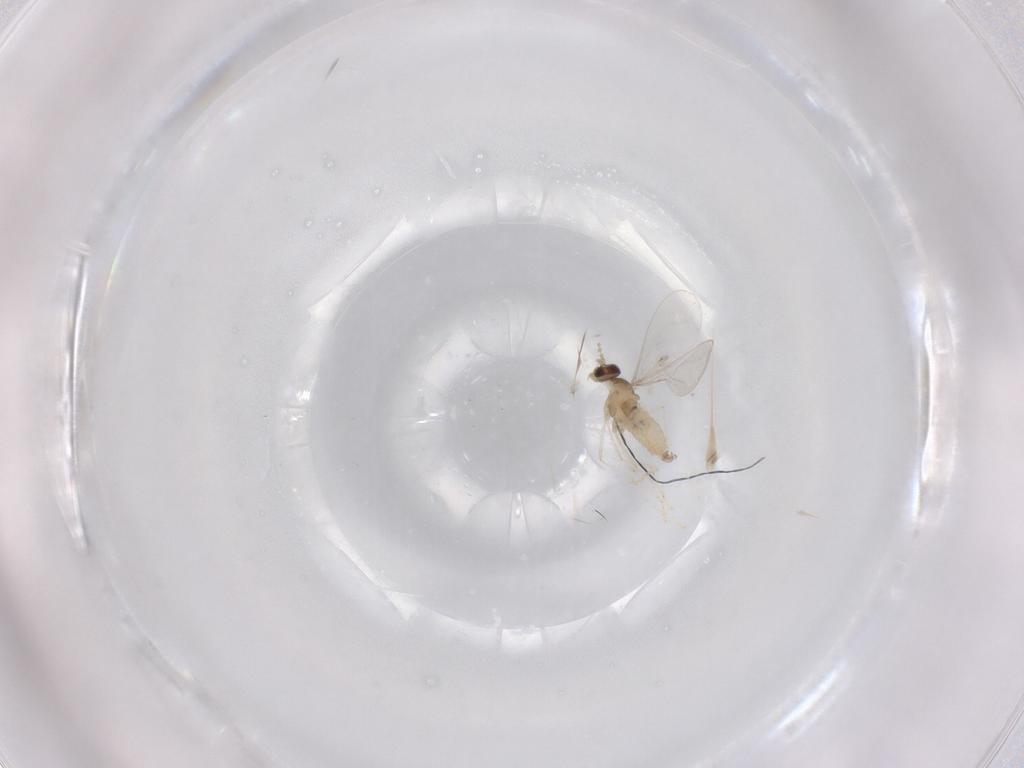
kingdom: Animalia
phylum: Arthropoda
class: Insecta
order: Diptera
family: Cecidomyiidae
